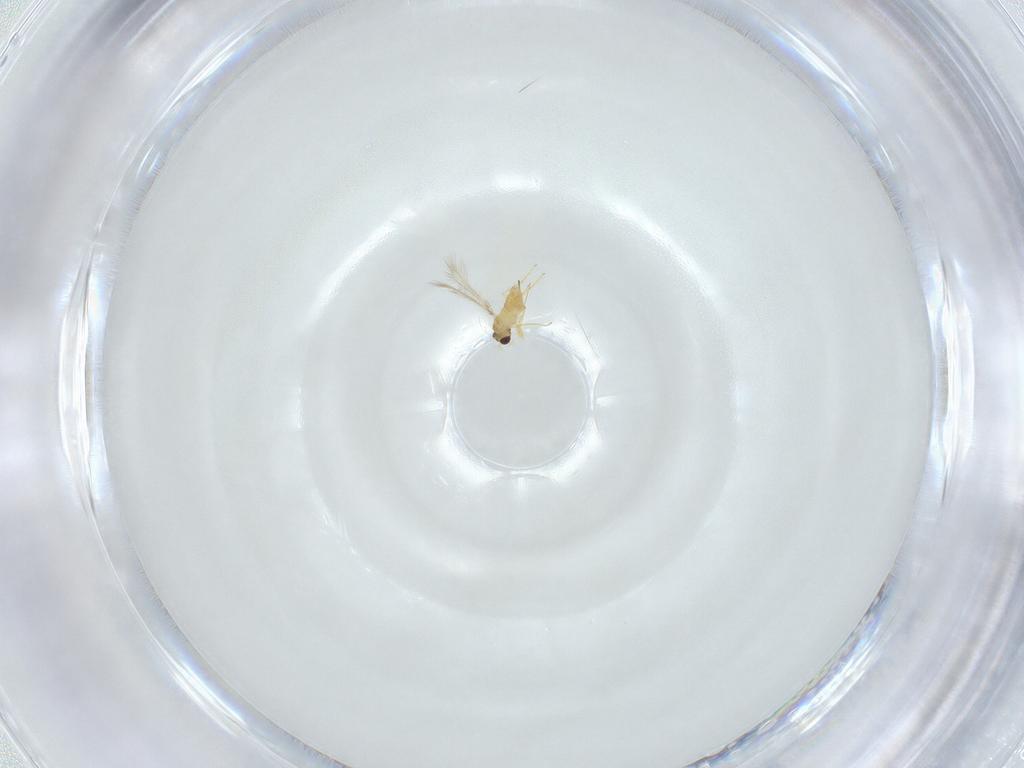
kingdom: Animalia
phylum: Arthropoda
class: Insecta
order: Hymenoptera
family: Mymaridae
